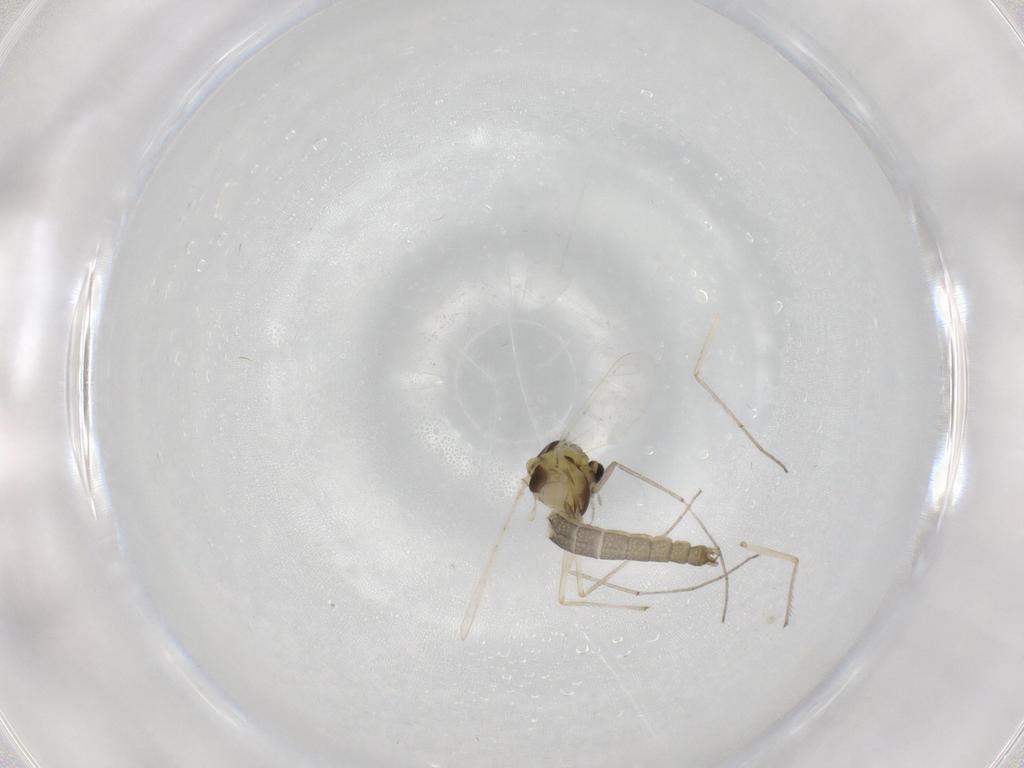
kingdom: Animalia
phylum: Arthropoda
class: Insecta
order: Diptera
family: Chironomidae
